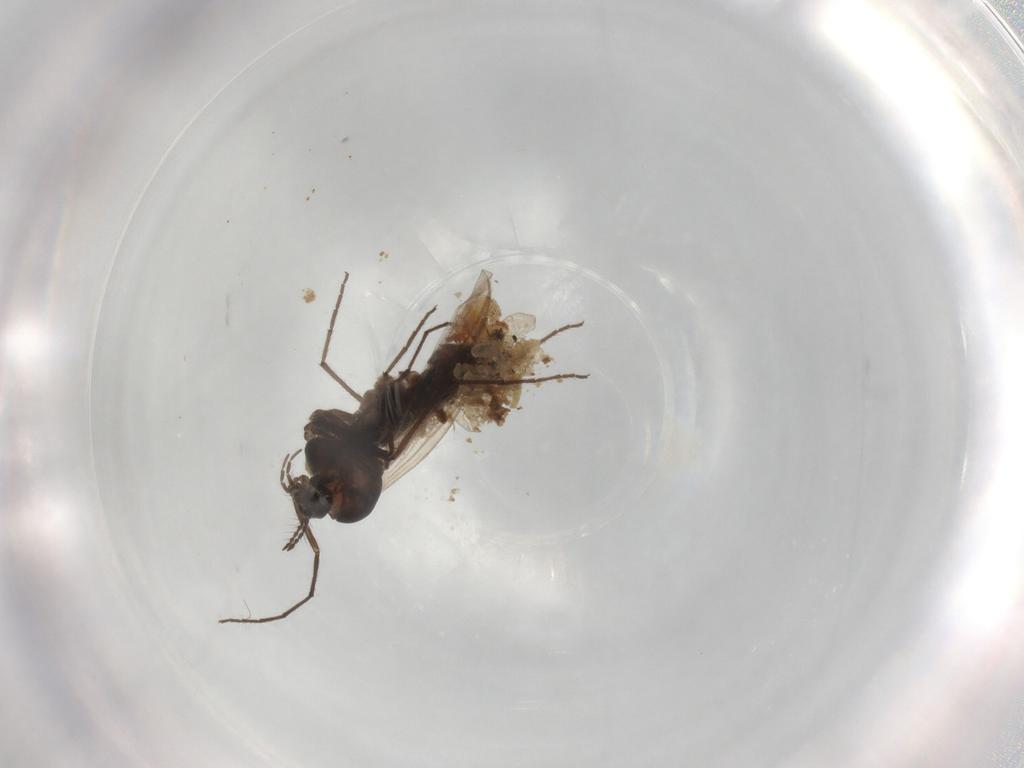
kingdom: Animalia
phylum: Arthropoda
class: Insecta
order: Diptera
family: Anthomyiidae
